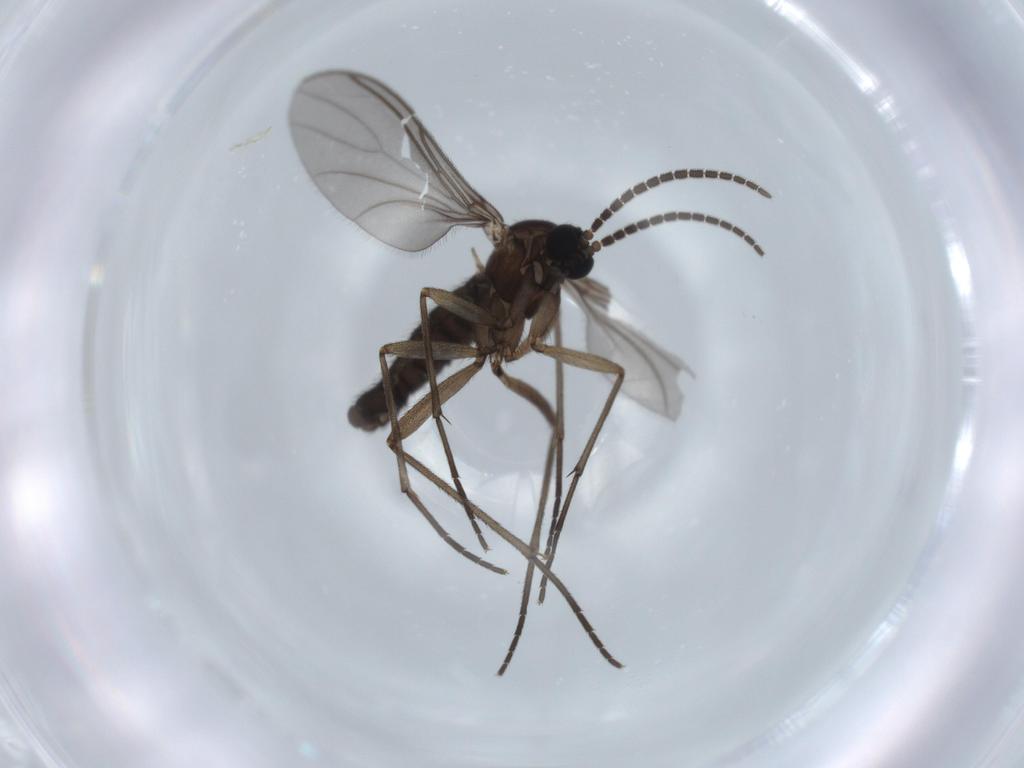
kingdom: Animalia
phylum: Arthropoda
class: Insecta
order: Diptera
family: Sciaridae
